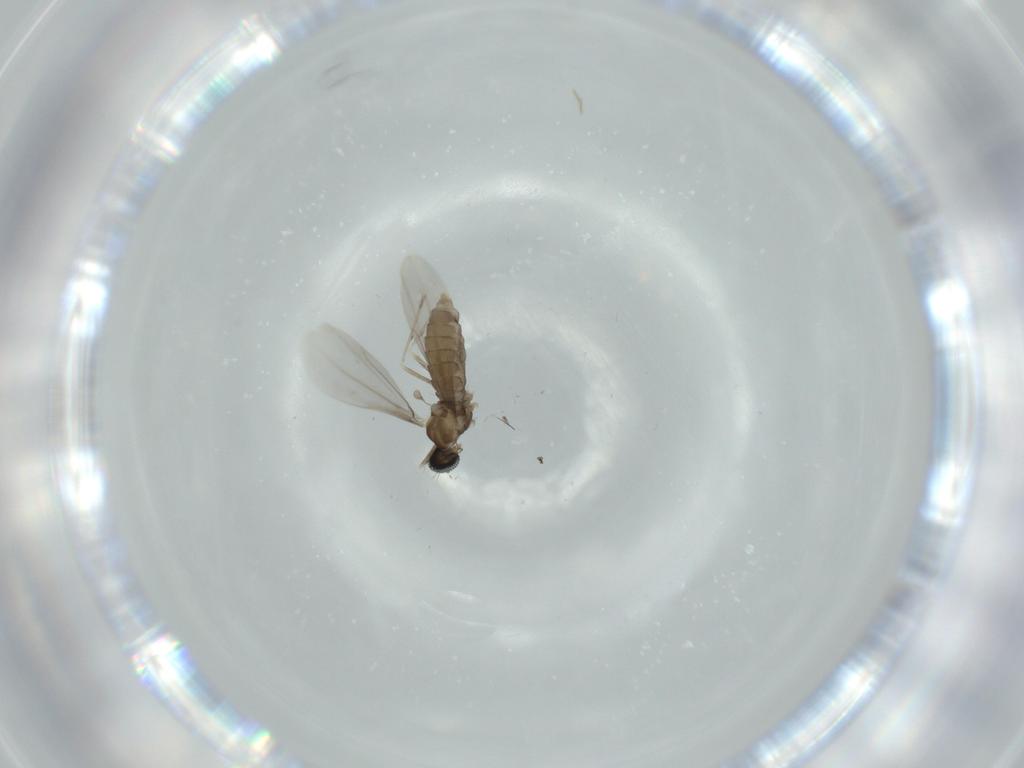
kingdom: Animalia
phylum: Arthropoda
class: Insecta
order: Diptera
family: Cecidomyiidae
